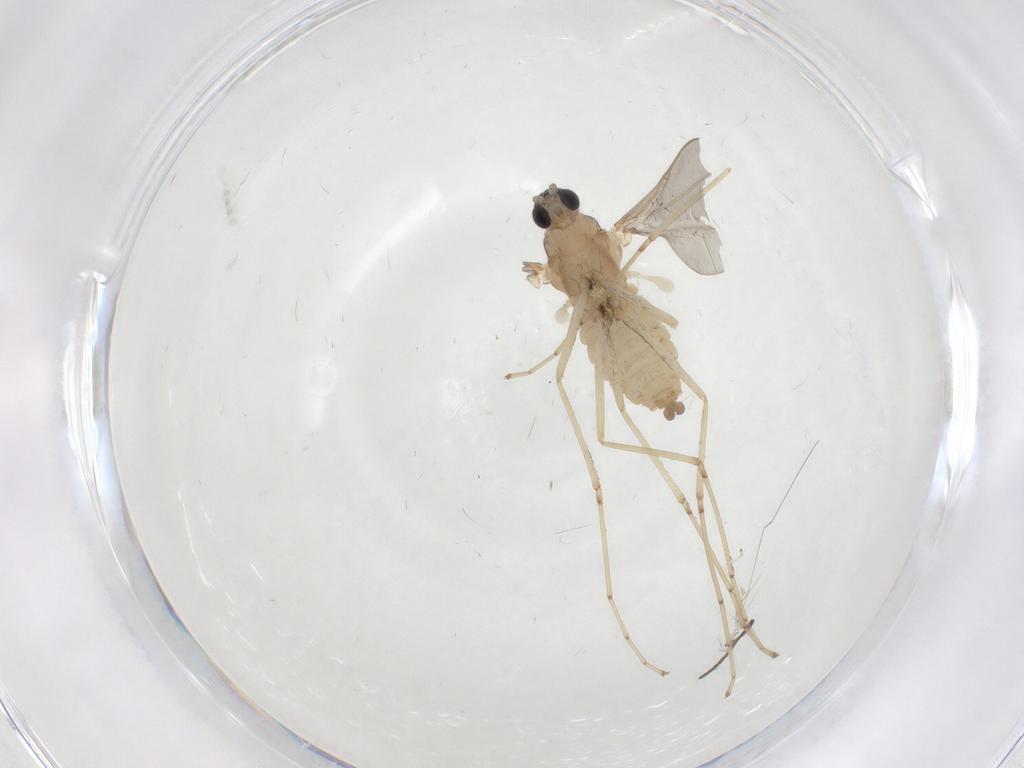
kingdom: Animalia
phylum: Arthropoda
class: Insecta
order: Diptera
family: Cecidomyiidae
